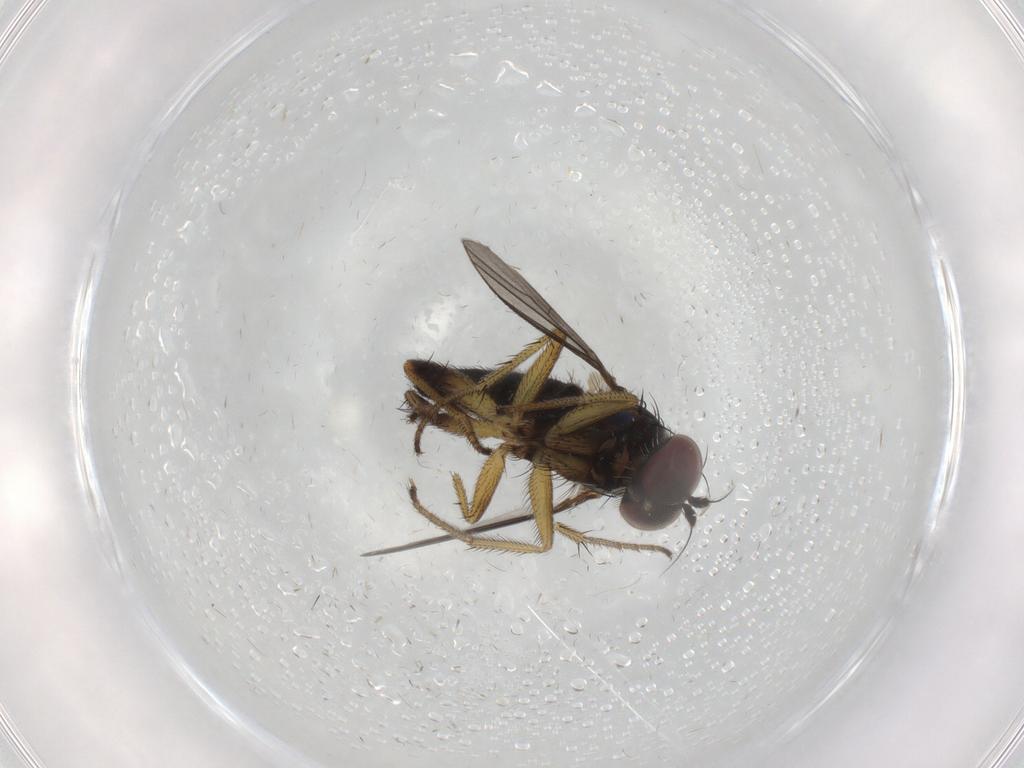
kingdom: Animalia
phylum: Arthropoda
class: Insecta
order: Diptera
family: Dolichopodidae
